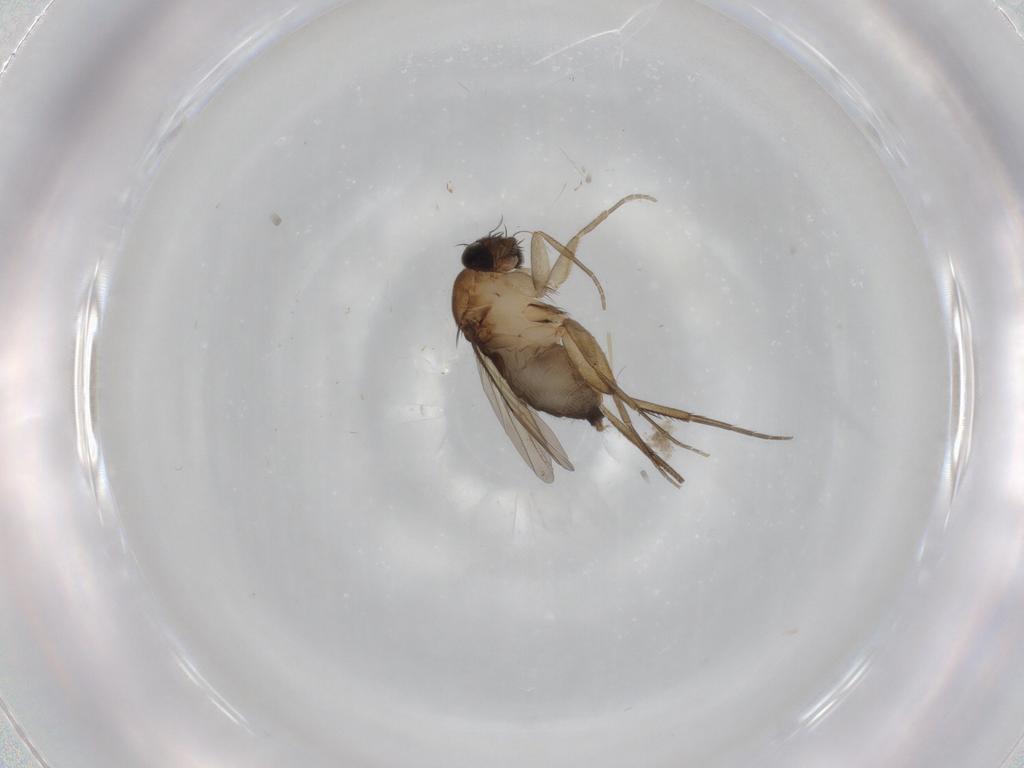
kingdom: Animalia
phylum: Arthropoda
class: Insecta
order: Diptera
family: Phoridae
